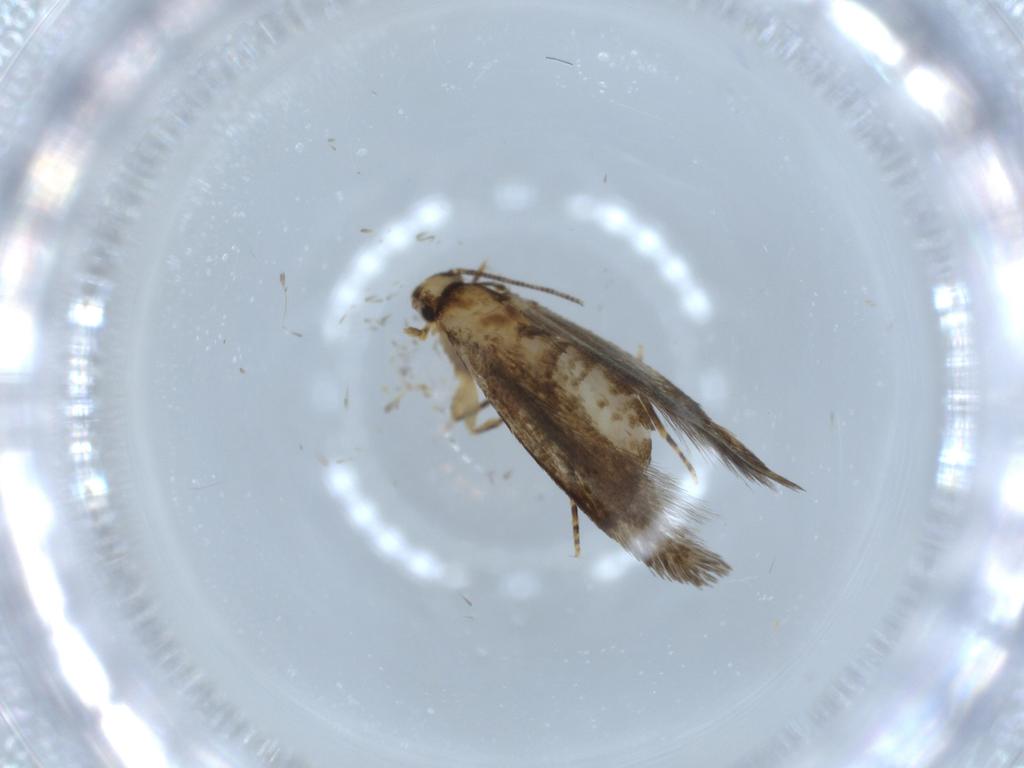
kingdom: Animalia
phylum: Arthropoda
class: Insecta
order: Lepidoptera
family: Tineidae
